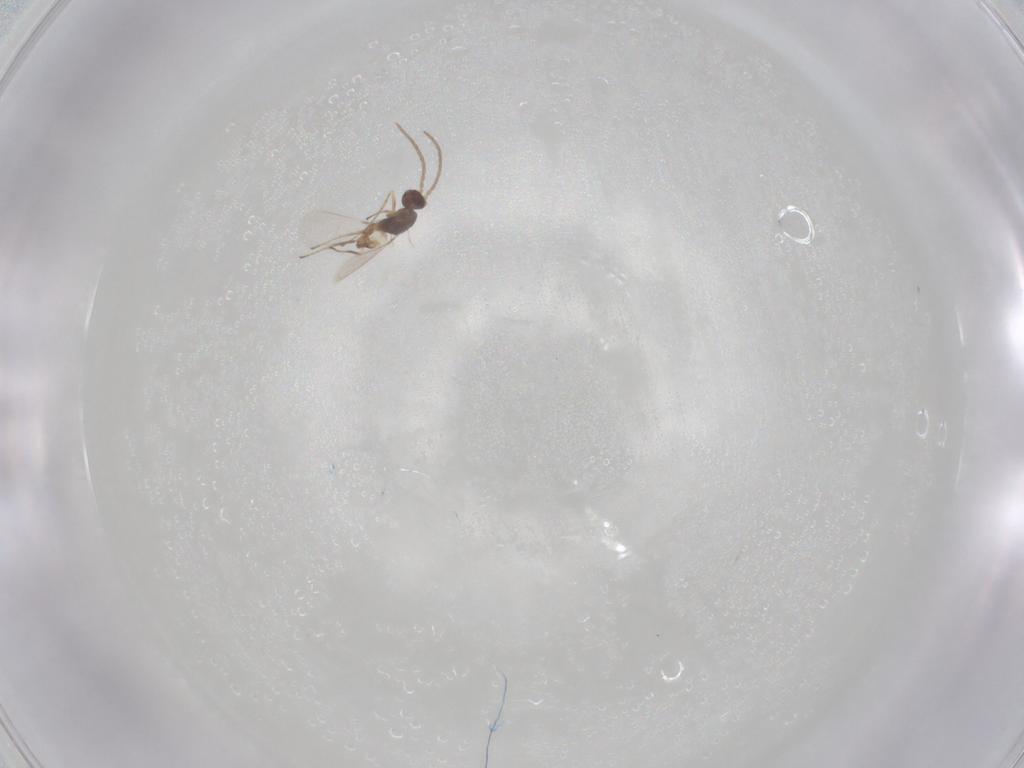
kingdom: Animalia
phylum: Arthropoda
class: Insecta
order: Hymenoptera
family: Mymaridae
